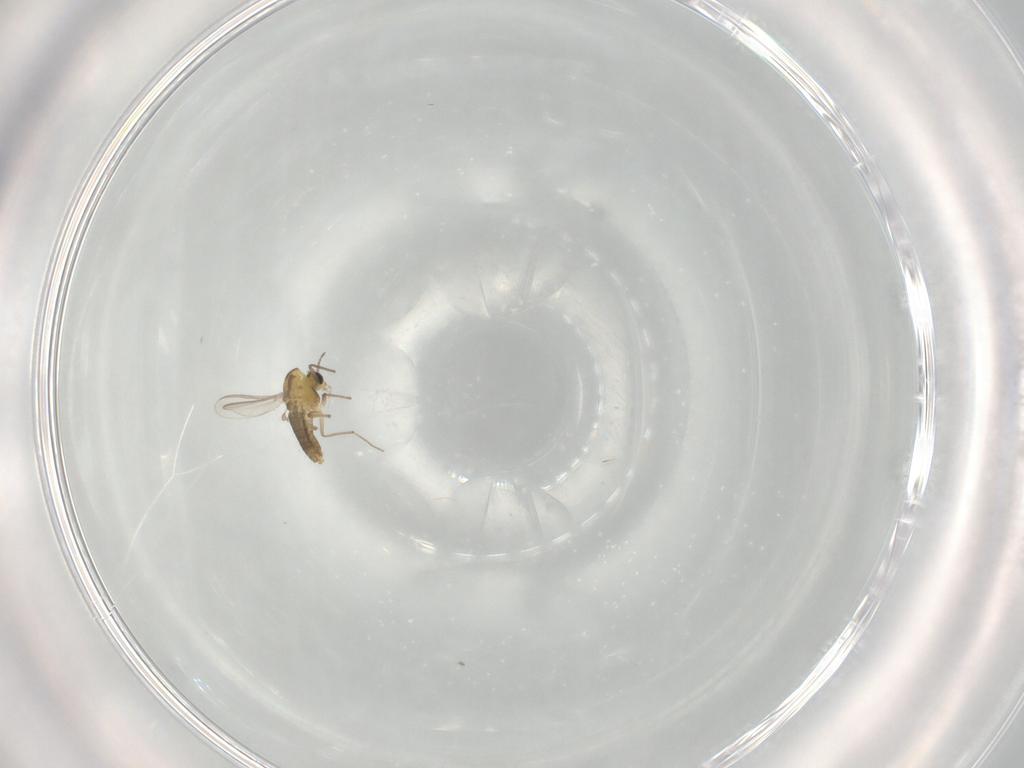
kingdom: Animalia
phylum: Arthropoda
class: Insecta
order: Diptera
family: Chironomidae
